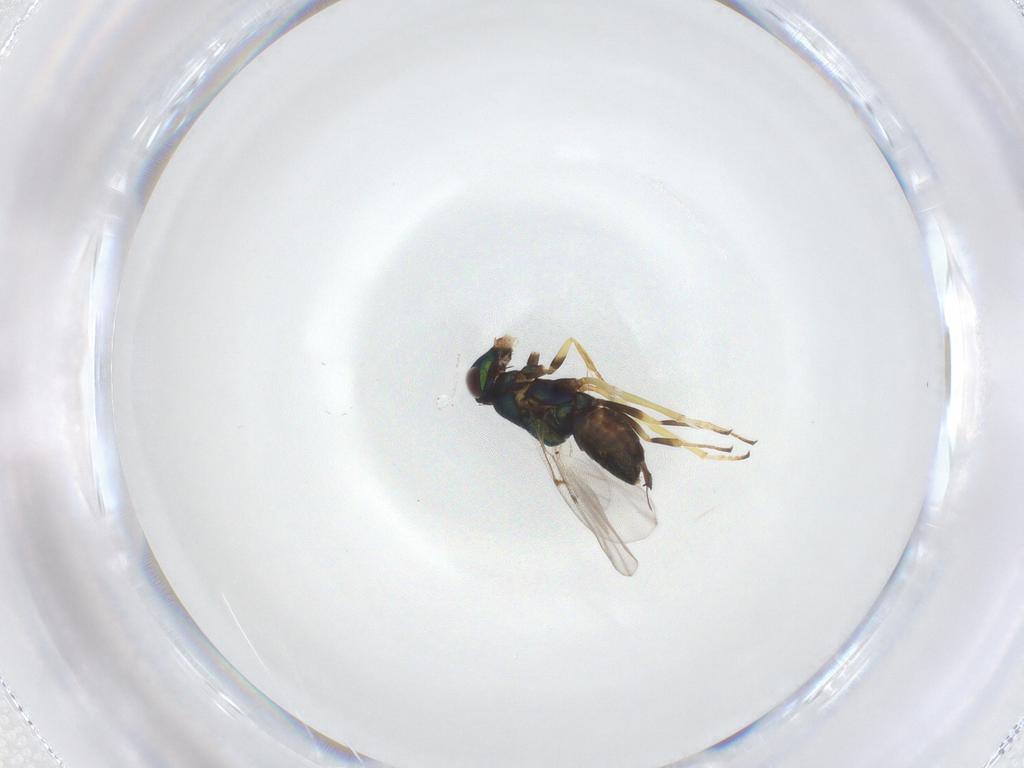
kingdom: Animalia
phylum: Arthropoda
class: Insecta
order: Hymenoptera
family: Encyrtidae
